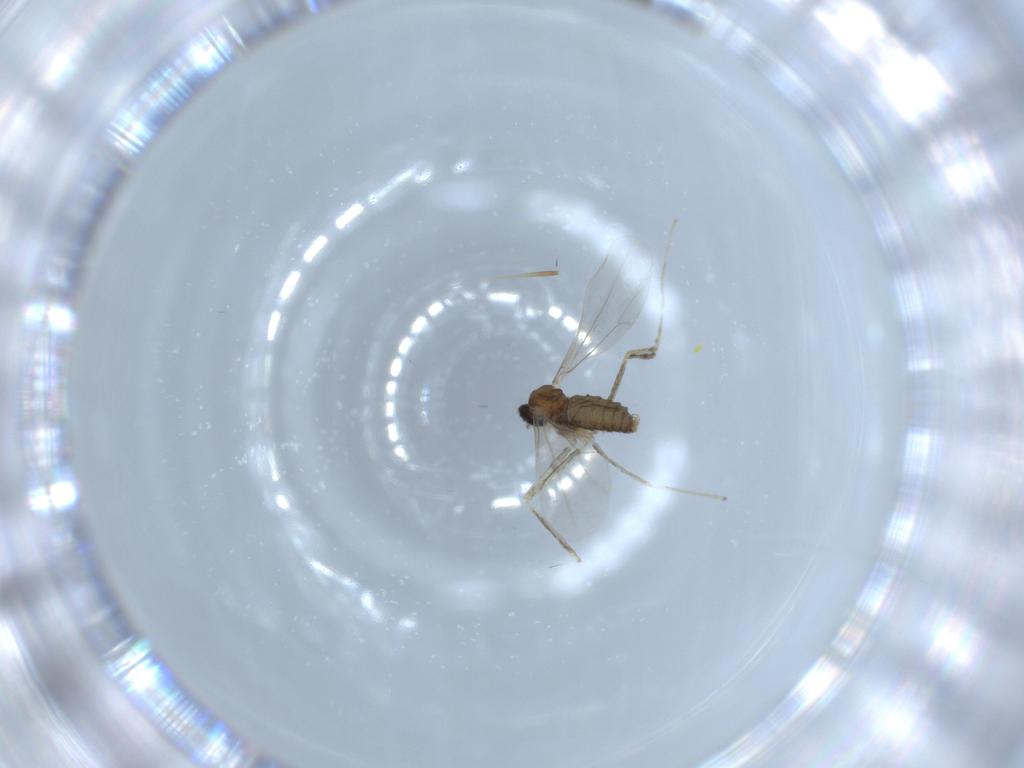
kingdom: Animalia
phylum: Arthropoda
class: Insecta
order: Diptera
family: Cecidomyiidae
